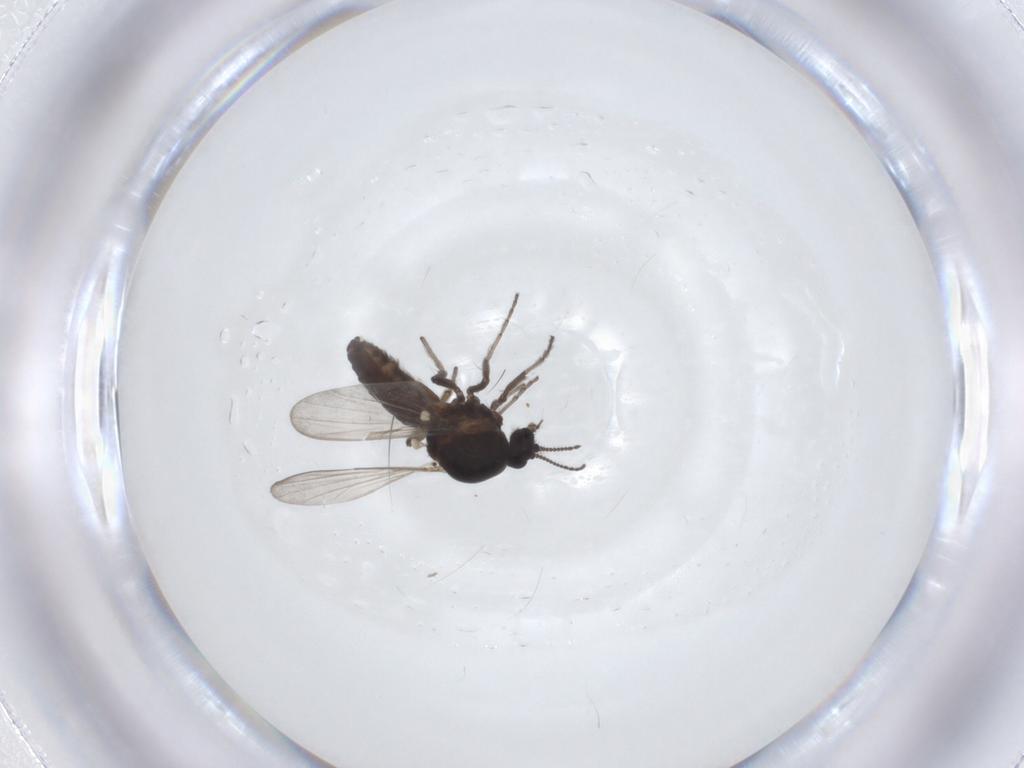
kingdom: Animalia
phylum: Arthropoda
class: Insecta
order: Diptera
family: Ceratopogonidae
